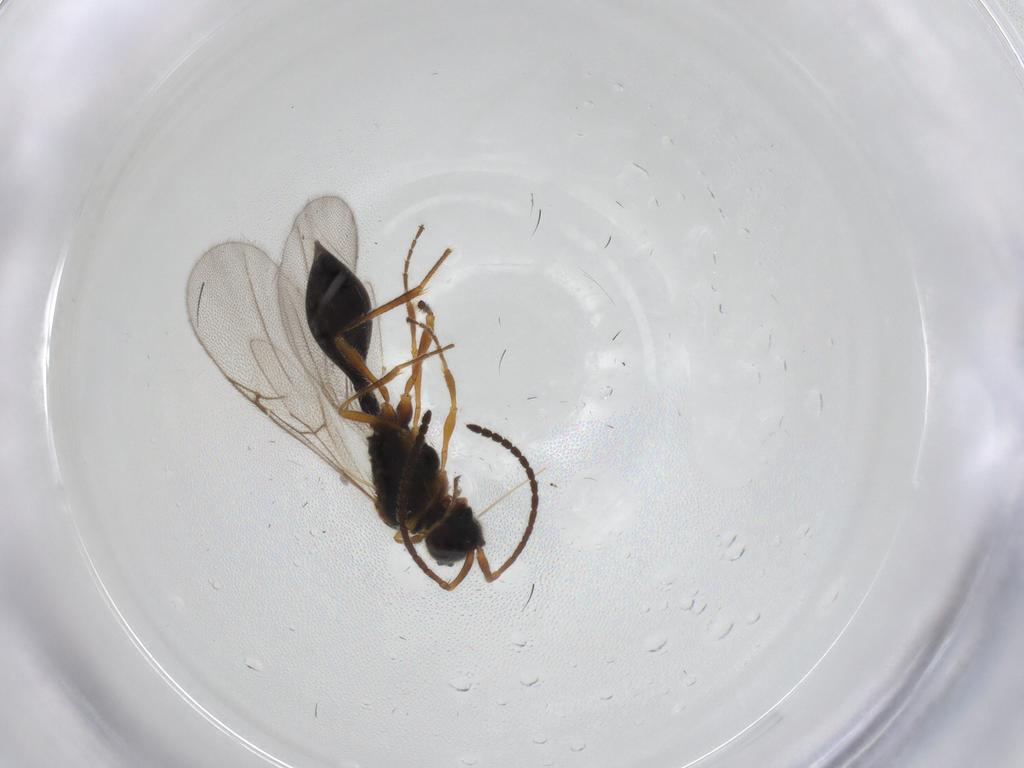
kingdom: Animalia
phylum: Arthropoda
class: Insecta
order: Hymenoptera
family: Diapriidae
